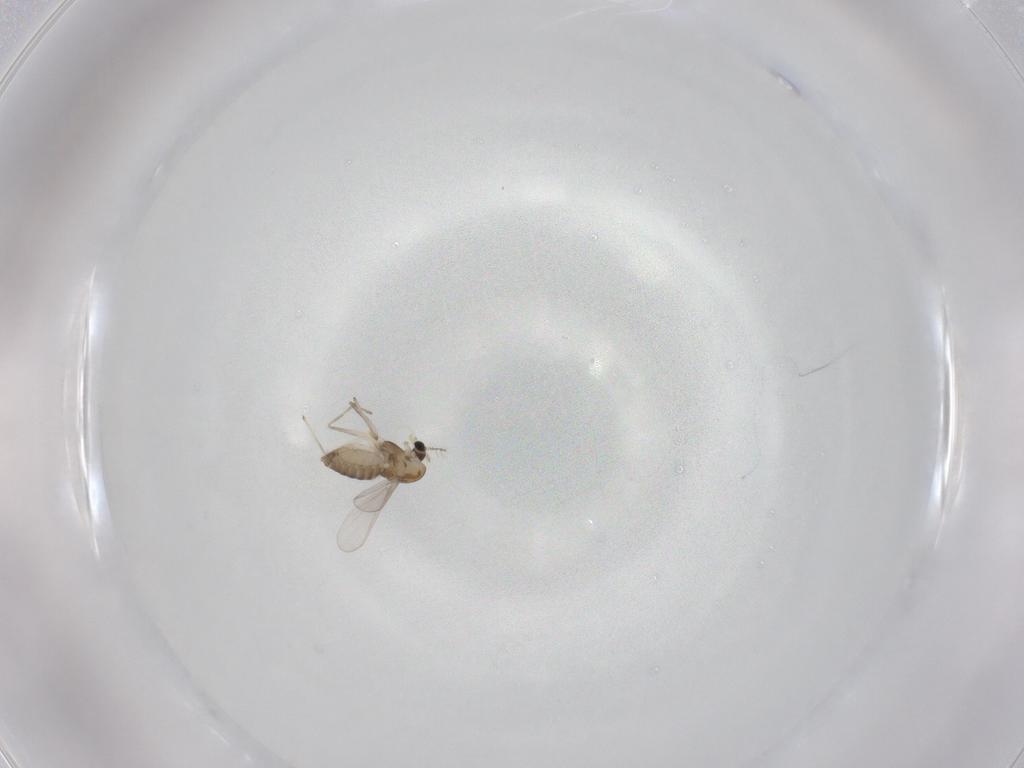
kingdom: Animalia
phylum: Arthropoda
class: Insecta
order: Diptera
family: Chironomidae
